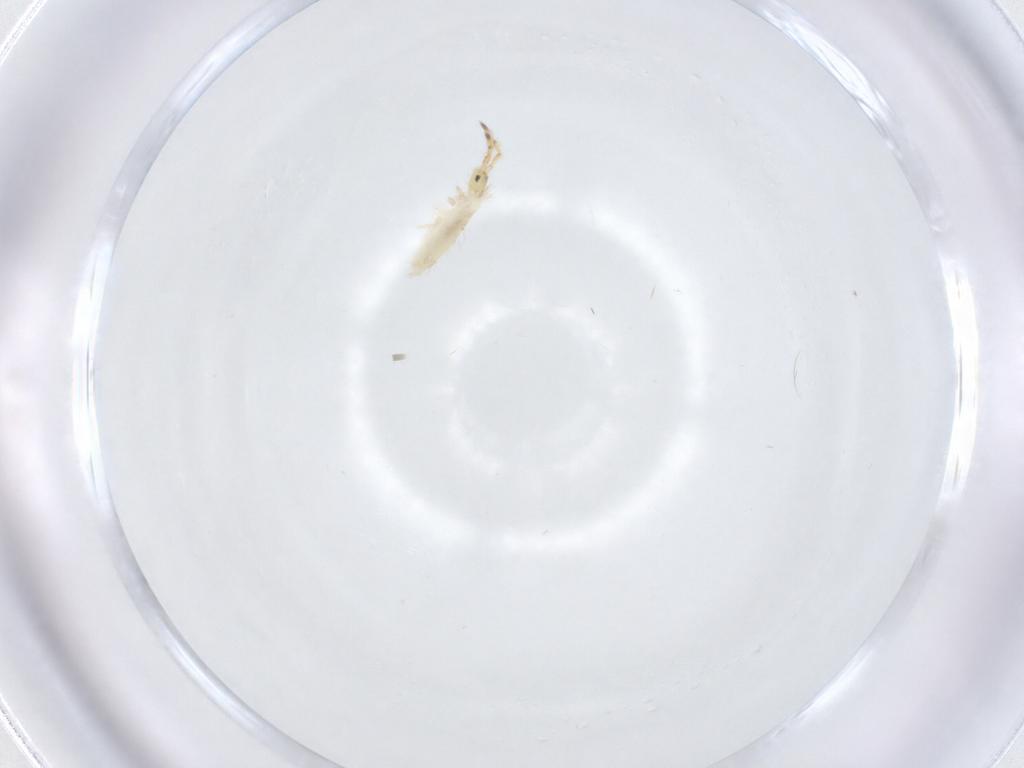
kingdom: Animalia
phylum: Arthropoda
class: Collembola
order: Entomobryomorpha
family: Entomobryidae
